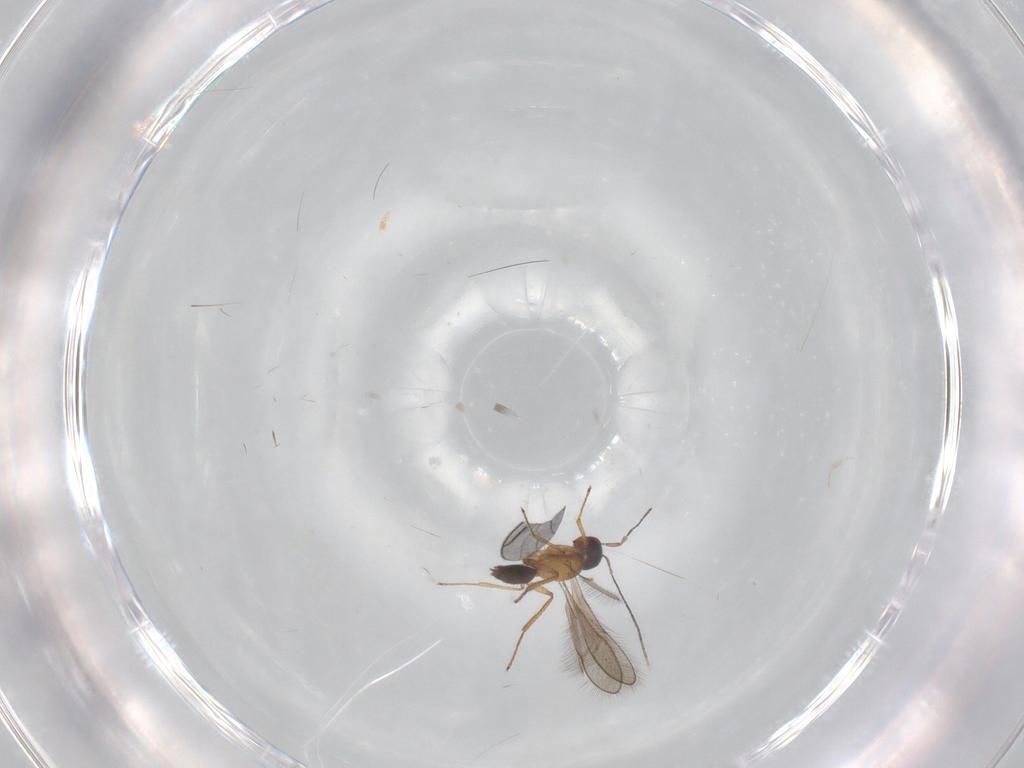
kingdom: Animalia
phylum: Arthropoda
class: Insecta
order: Hymenoptera
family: Mymaridae
